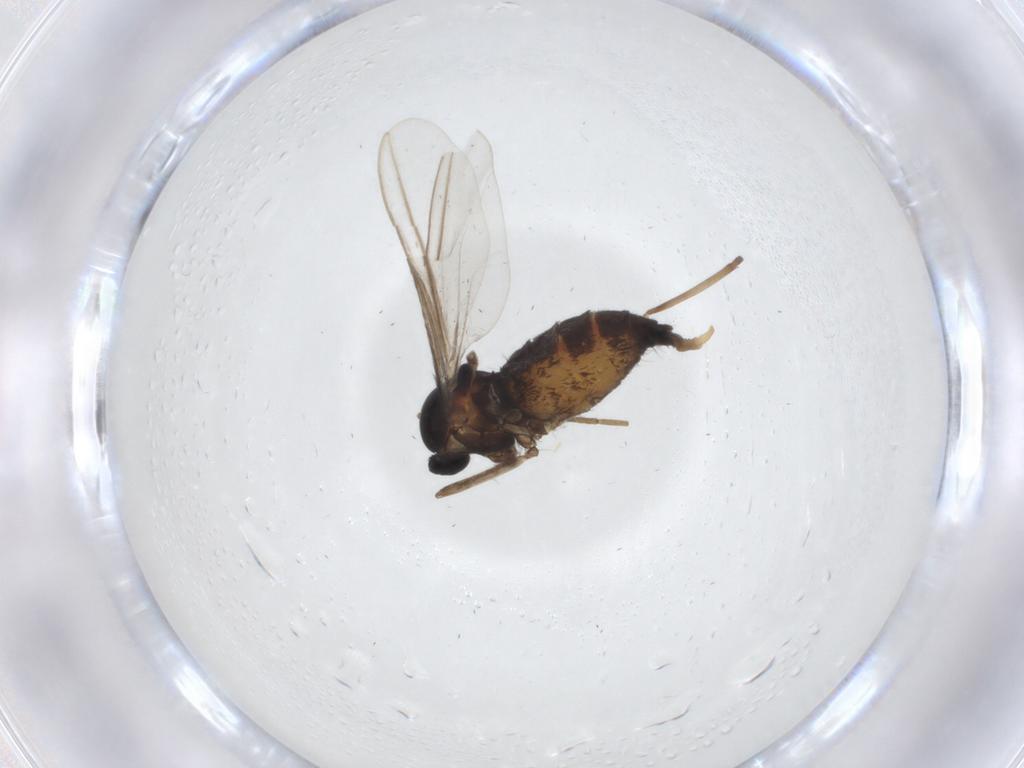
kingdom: Animalia
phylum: Arthropoda
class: Insecta
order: Diptera
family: Cecidomyiidae
